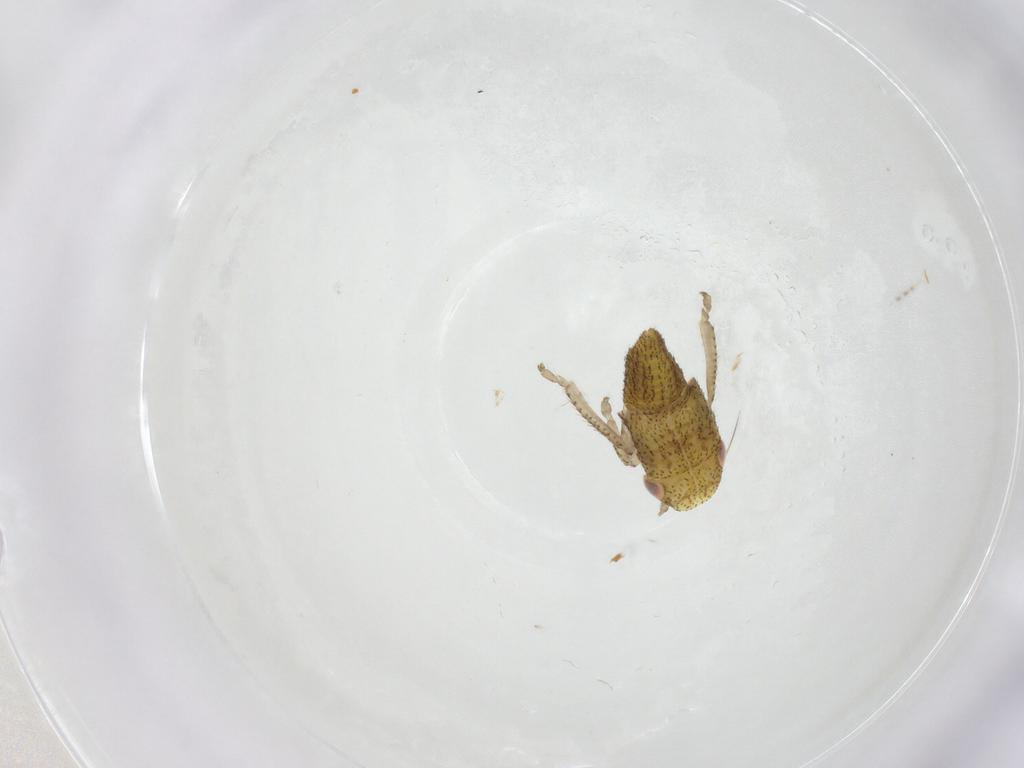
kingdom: Animalia
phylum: Arthropoda
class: Insecta
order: Hemiptera
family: Cicadellidae
